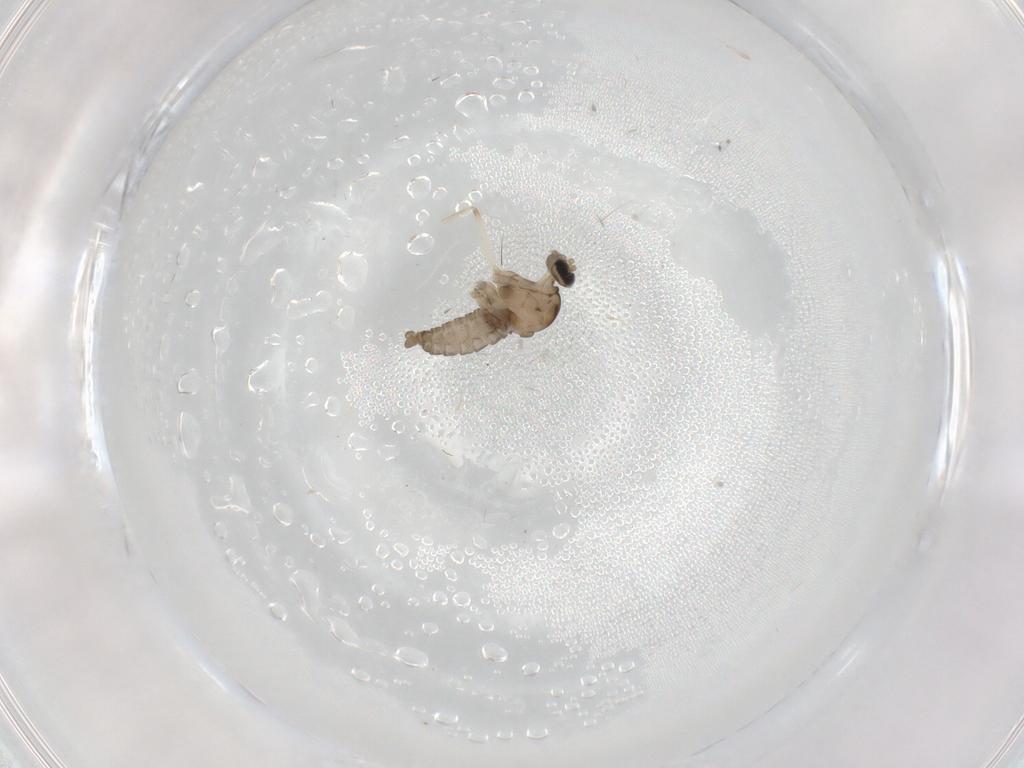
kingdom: Animalia
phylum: Arthropoda
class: Insecta
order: Diptera
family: Cecidomyiidae
